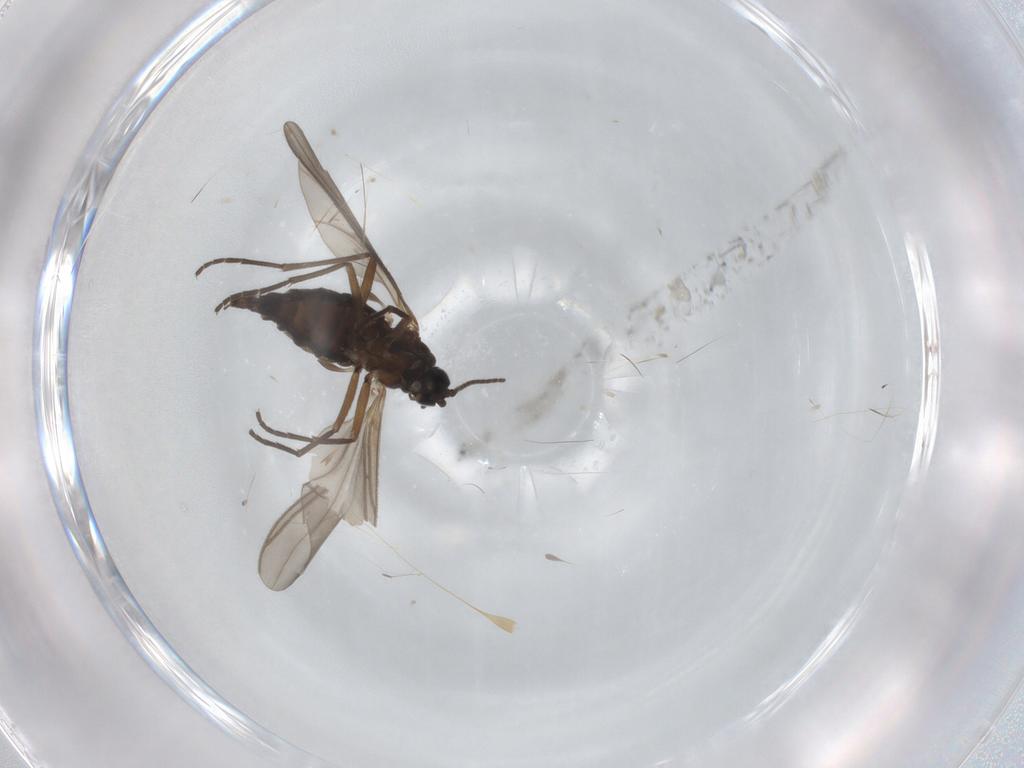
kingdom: Animalia
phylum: Arthropoda
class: Insecta
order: Diptera
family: Sciaridae
